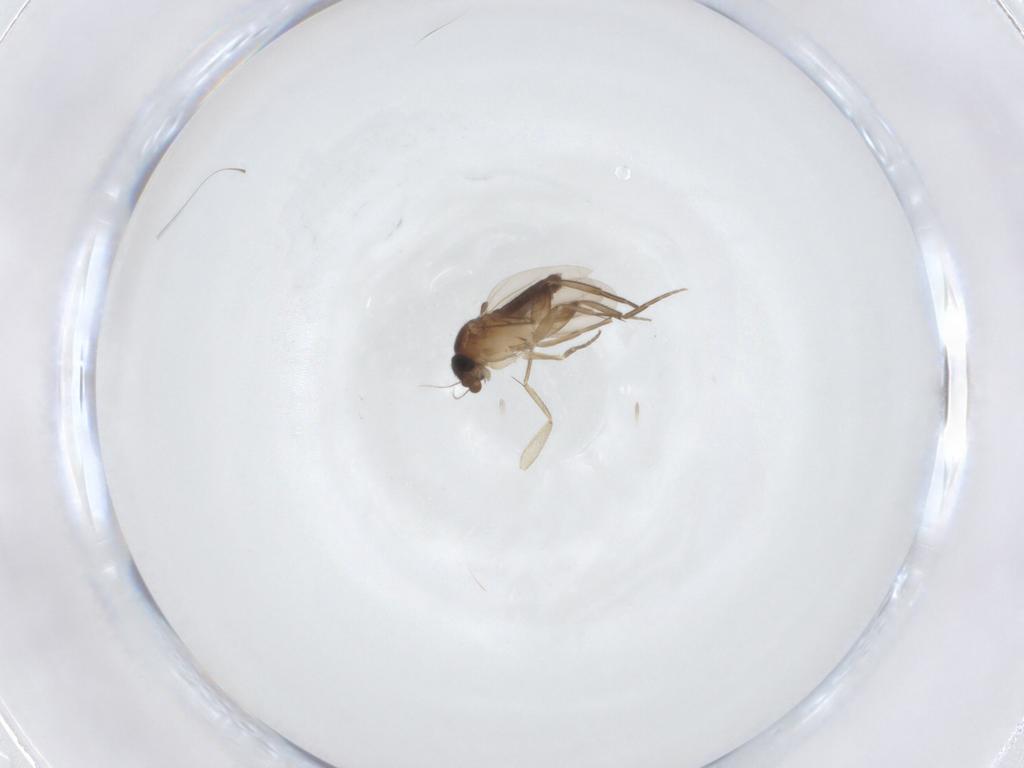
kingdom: Animalia
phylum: Arthropoda
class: Insecta
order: Diptera
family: Phoridae
